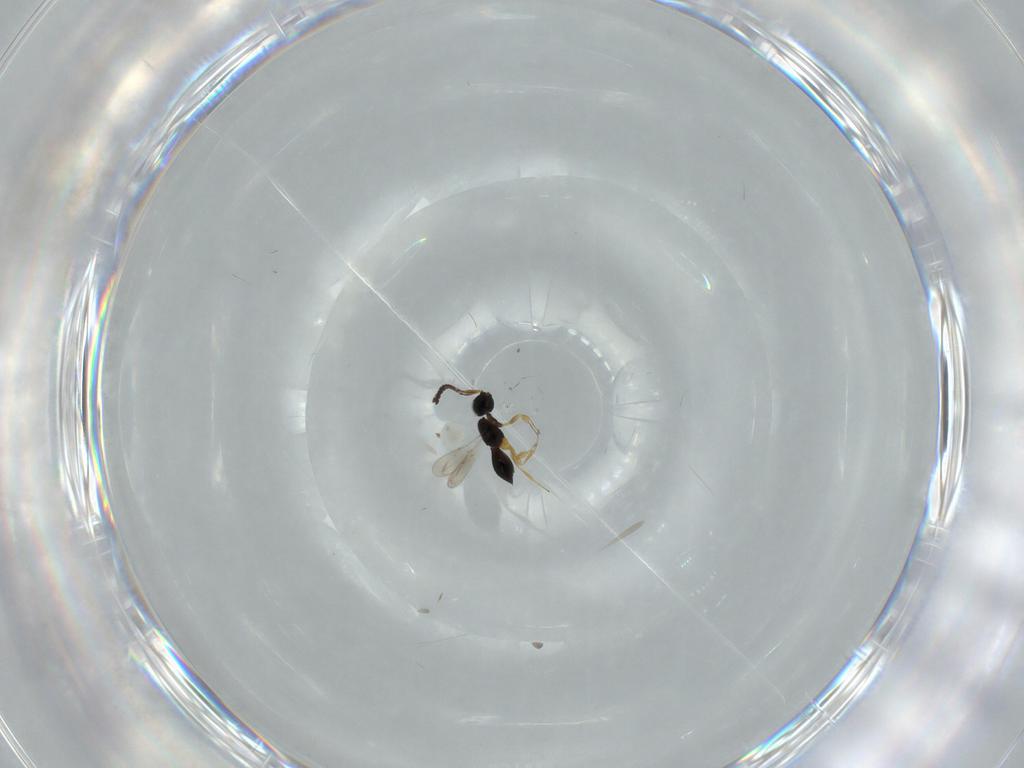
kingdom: Animalia
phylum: Arthropoda
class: Insecta
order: Hymenoptera
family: Scelionidae
